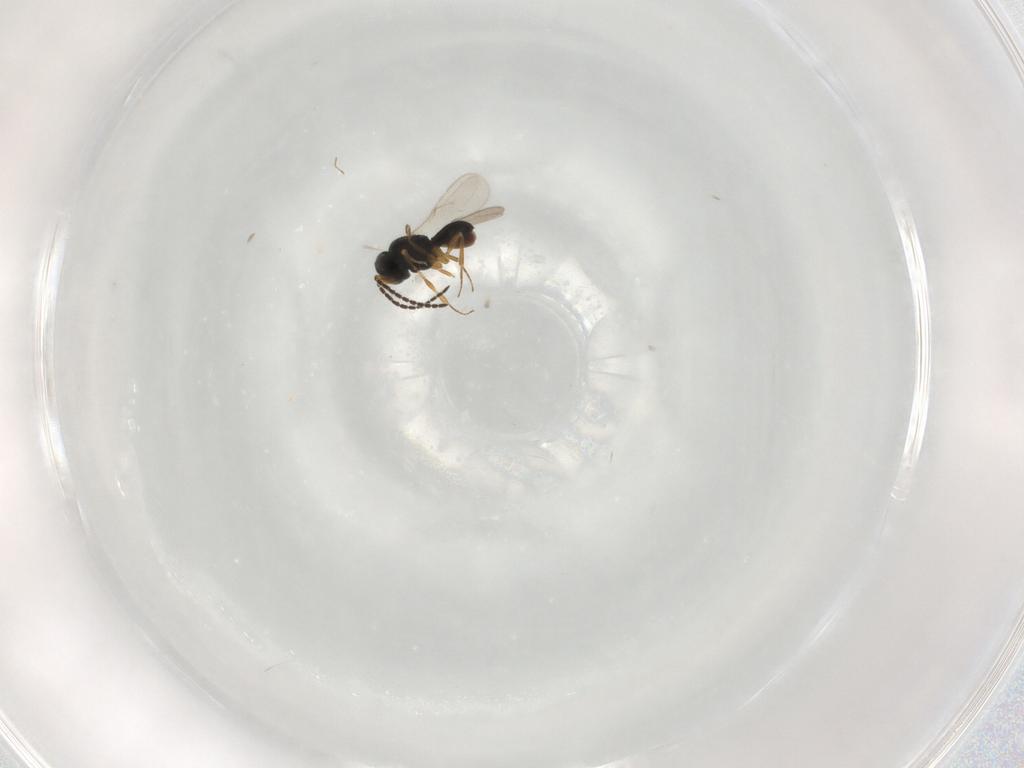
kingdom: Animalia
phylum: Arthropoda
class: Insecta
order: Hymenoptera
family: Scelionidae
